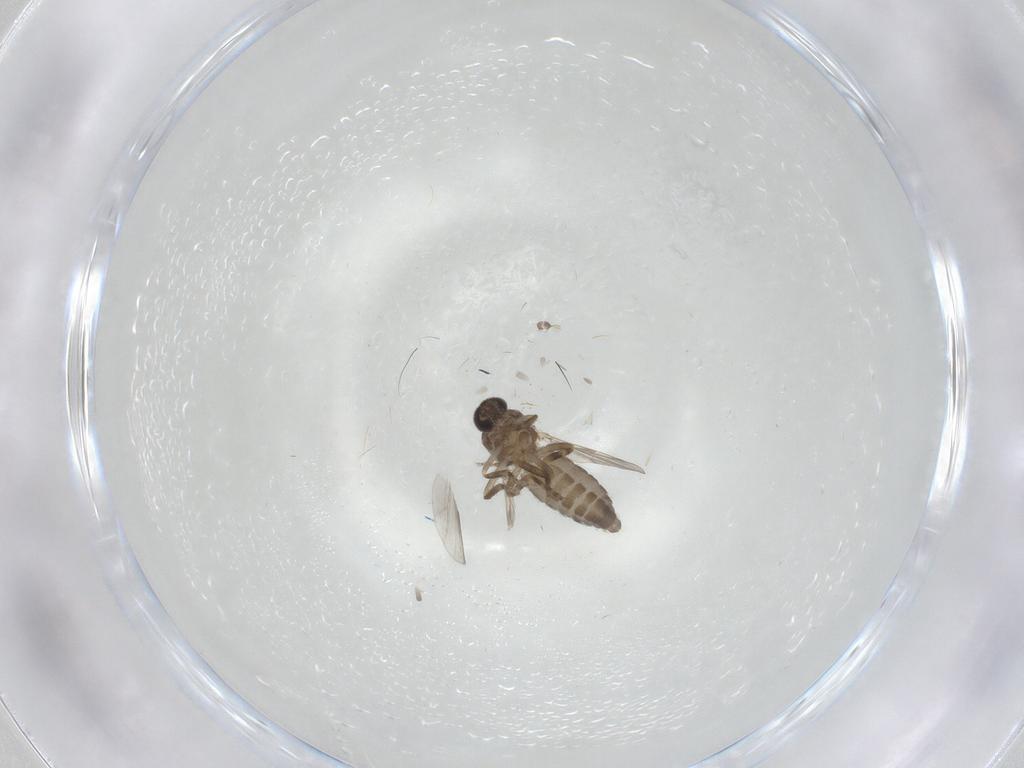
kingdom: Animalia
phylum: Arthropoda
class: Insecta
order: Diptera
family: Ceratopogonidae
